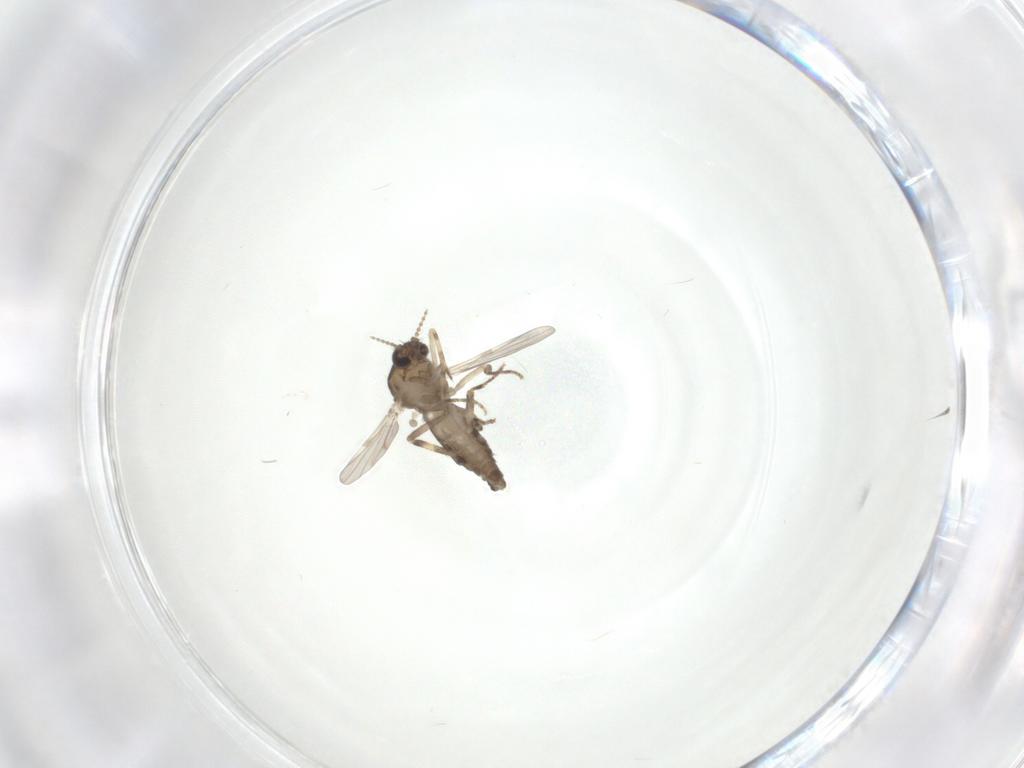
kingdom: Animalia
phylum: Arthropoda
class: Insecta
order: Diptera
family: Ceratopogonidae
